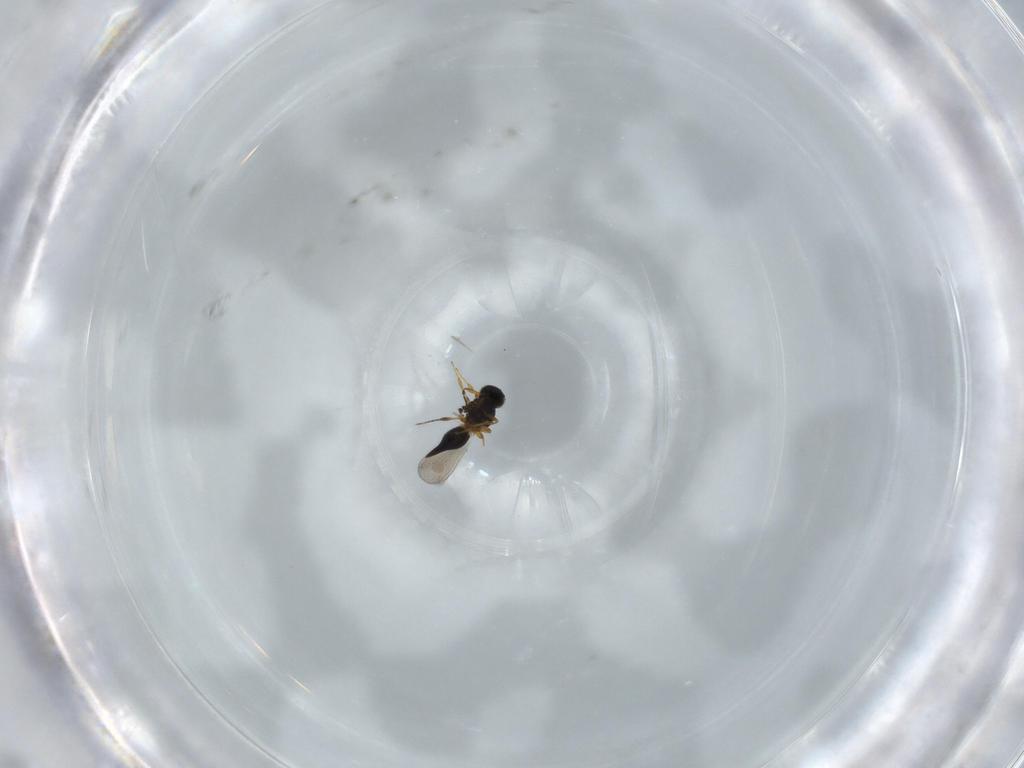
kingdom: Animalia
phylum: Arthropoda
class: Insecta
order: Hymenoptera
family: Platygastridae
